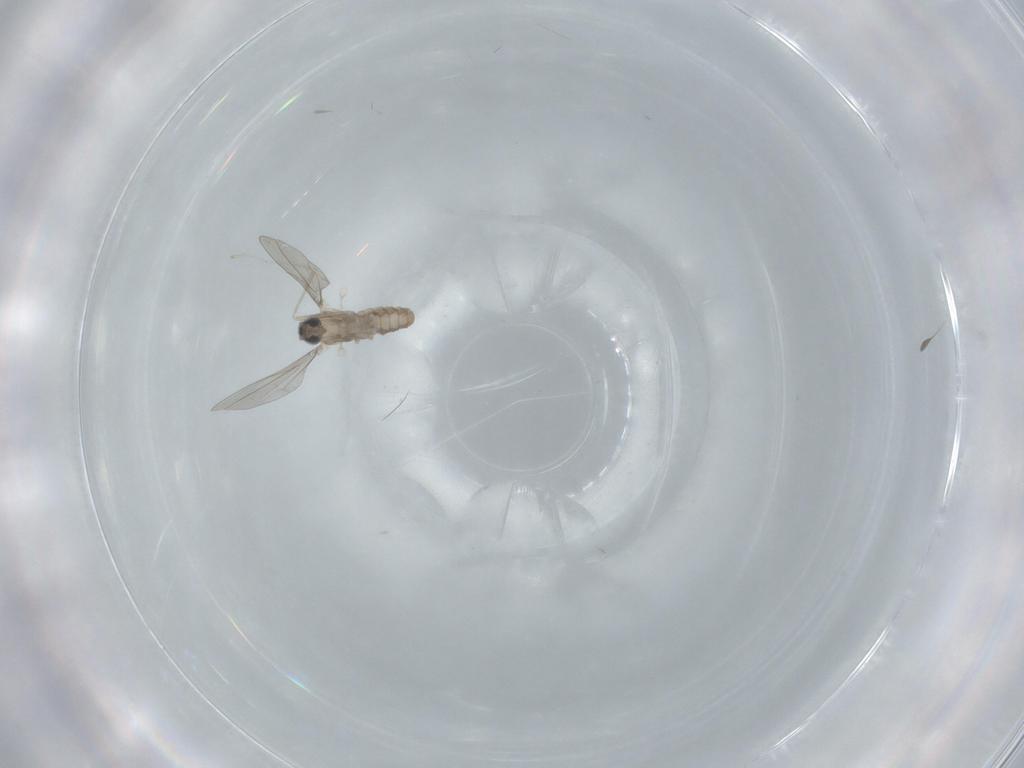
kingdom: Animalia
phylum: Arthropoda
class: Insecta
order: Diptera
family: Cecidomyiidae
